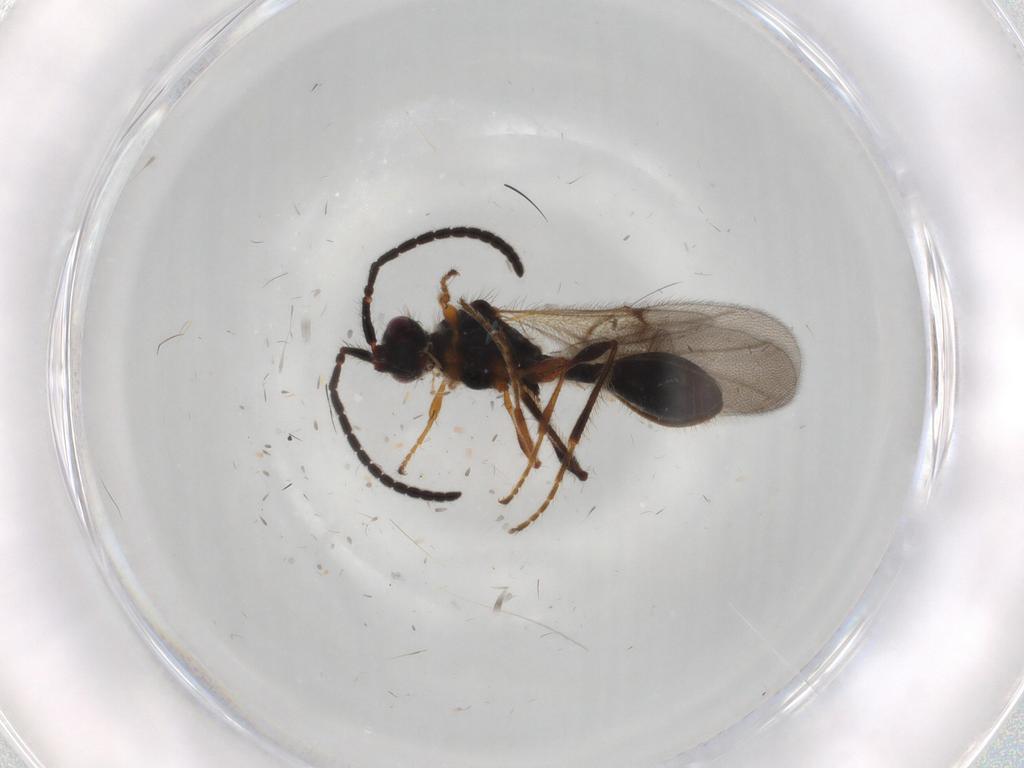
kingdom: Animalia
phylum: Arthropoda
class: Insecta
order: Hymenoptera
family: Diapriidae
